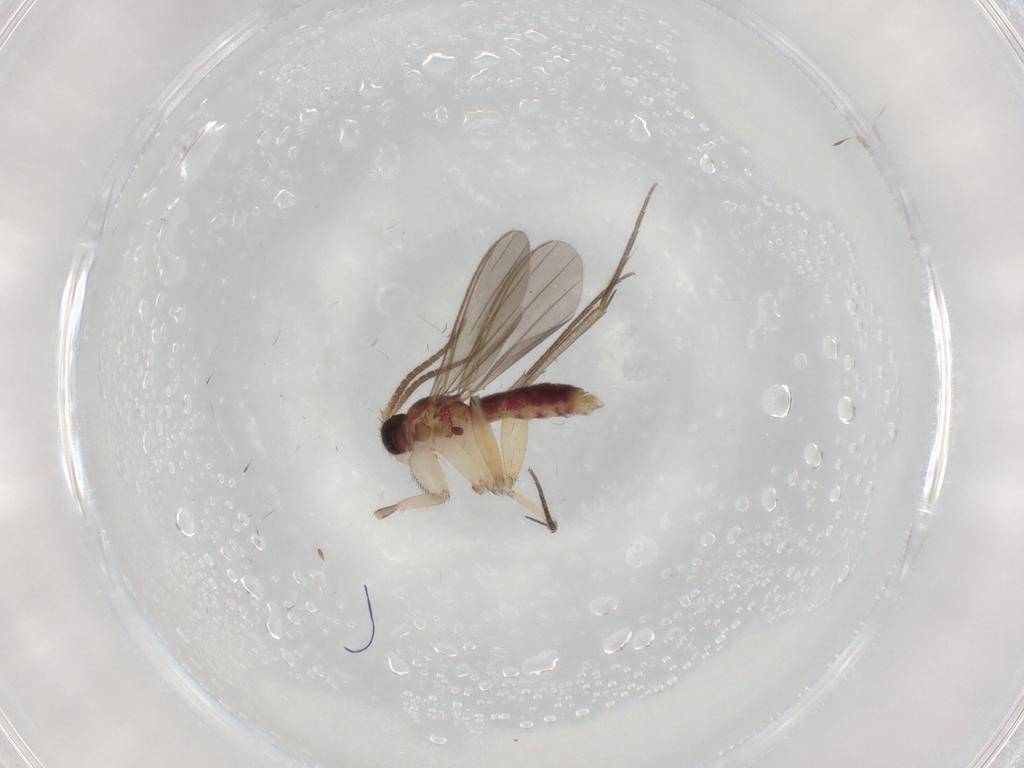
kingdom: Animalia
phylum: Arthropoda
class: Insecta
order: Diptera
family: Mycetophilidae
